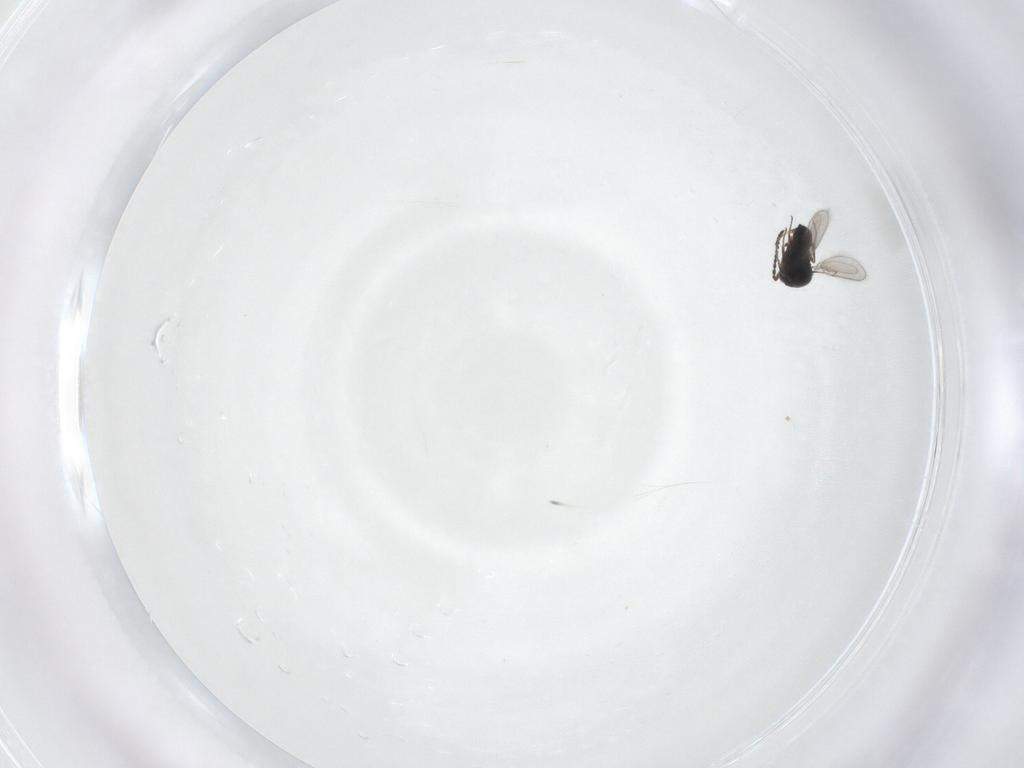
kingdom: Animalia
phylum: Arthropoda
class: Insecta
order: Hymenoptera
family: Scelionidae
